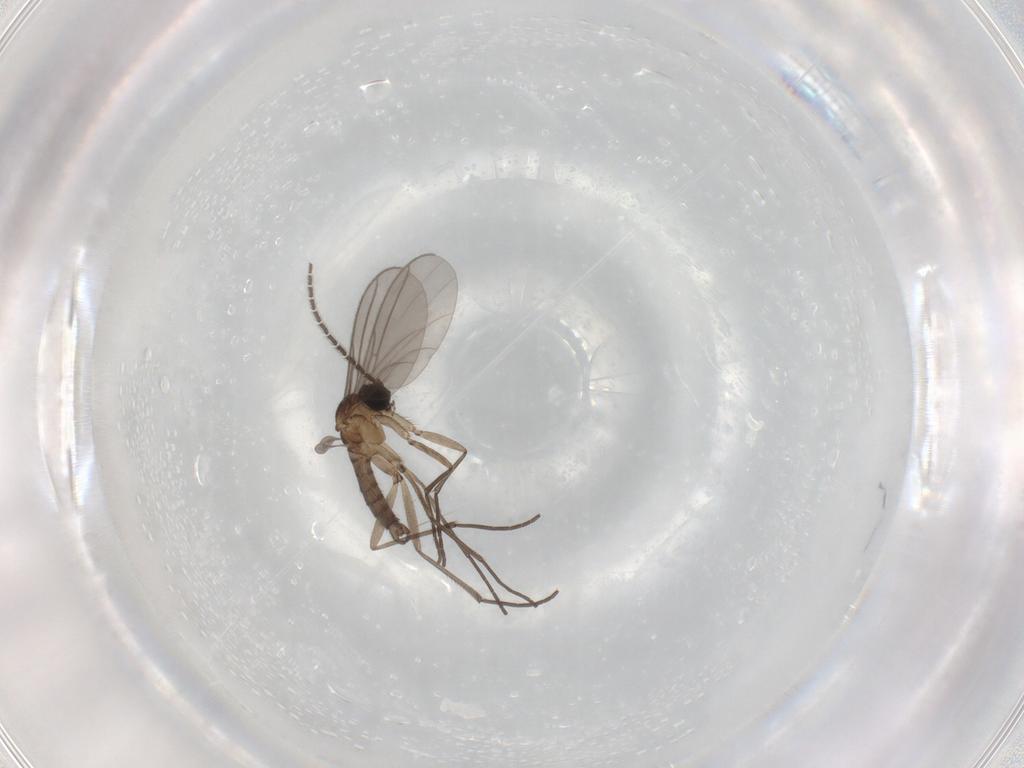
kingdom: Animalia
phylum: Arthropoda
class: Insecta
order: Diptera
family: Sciaridae
